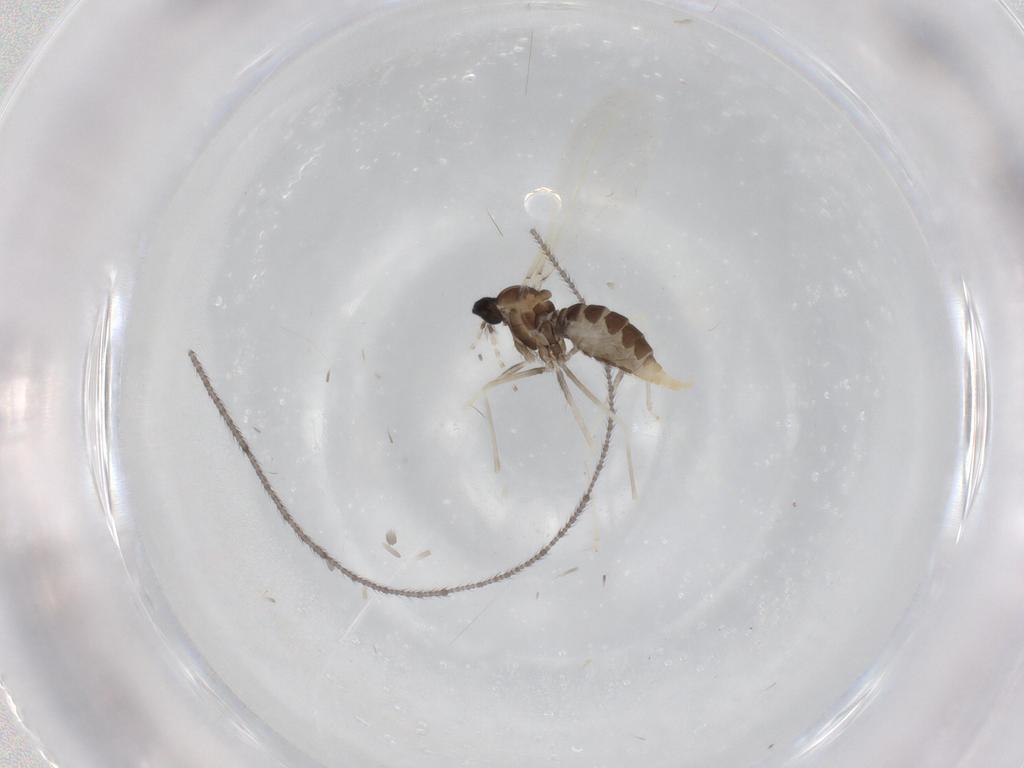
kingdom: Animalia
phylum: Arthropoda
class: Insecta
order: Diptera
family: Cecidomyiidae
